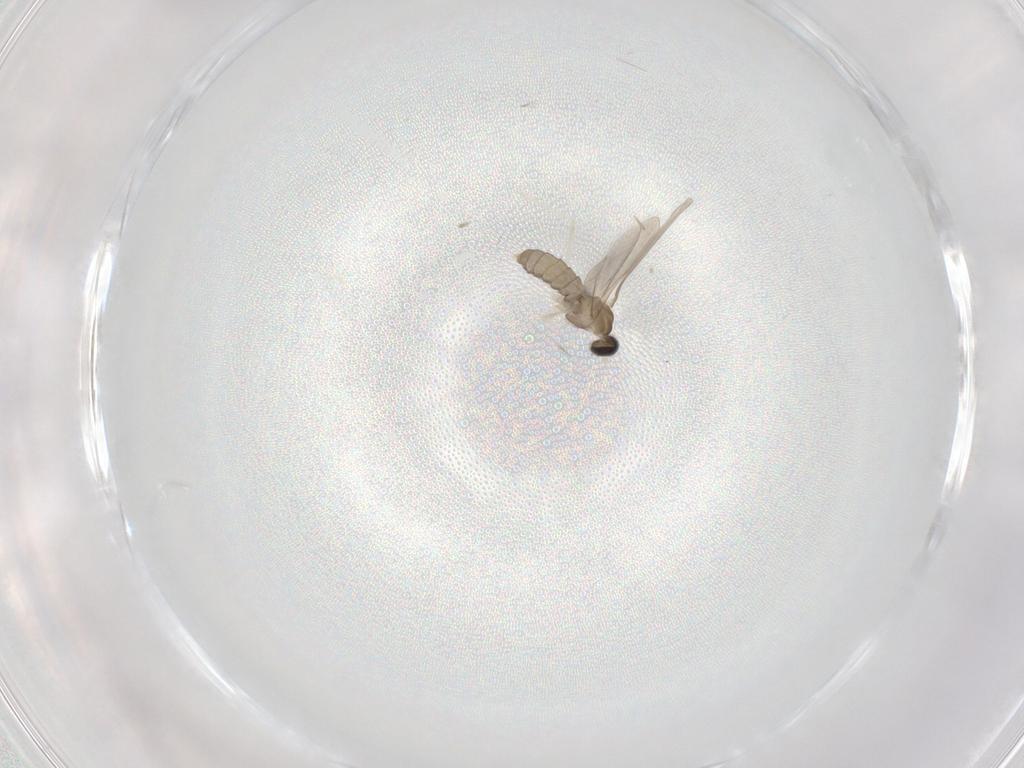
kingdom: Animalia
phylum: Arthropoda
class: Insecta
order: Diptera
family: Cecidomyiidae
